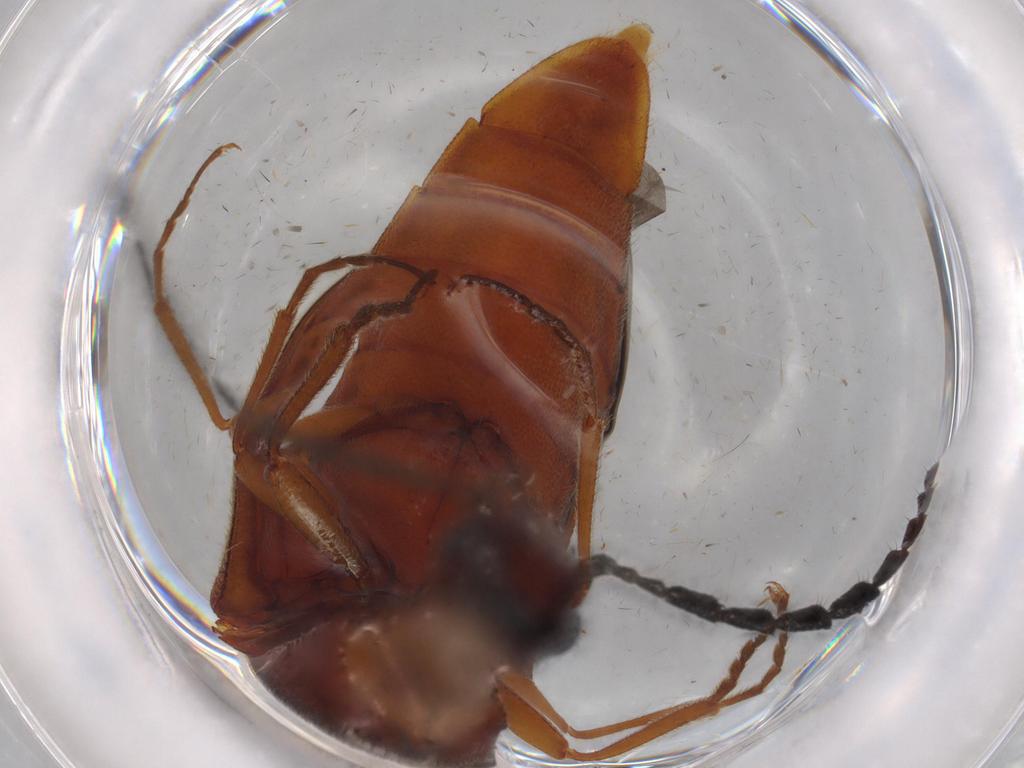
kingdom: Animalia
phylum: Arthropoda
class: Insecta
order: Coleoptera
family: Elateridae
